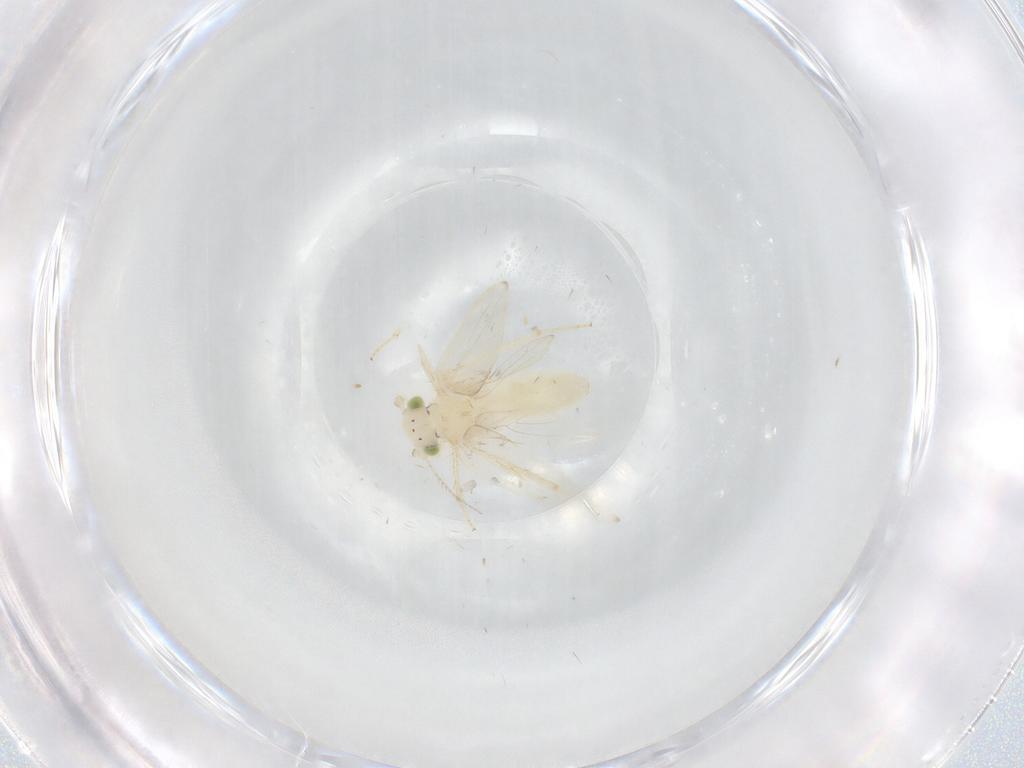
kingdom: Animalia
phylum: Arthropoda
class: Insecta
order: Psocodea
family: Lepidopsocidae
